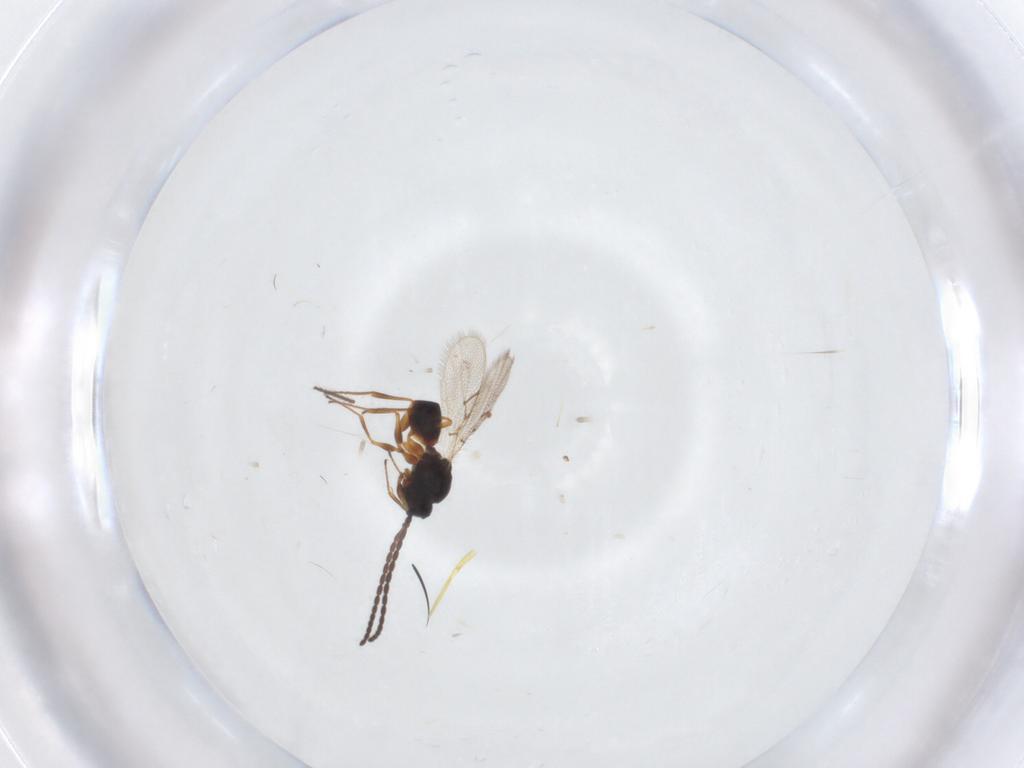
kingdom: Animalia
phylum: Arthropoda
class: Insecta
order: Hymenoptera
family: Figitidae
